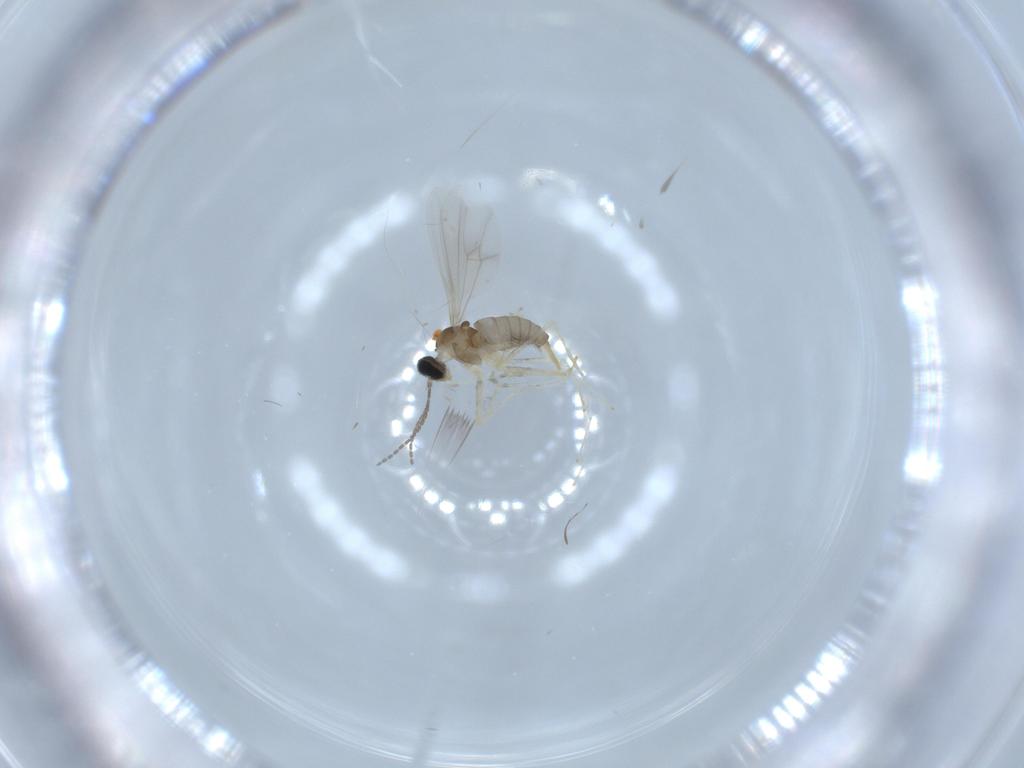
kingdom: Animalia
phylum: Arthropoda
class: Insecta
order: Diptera
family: Cecidomyiidae
